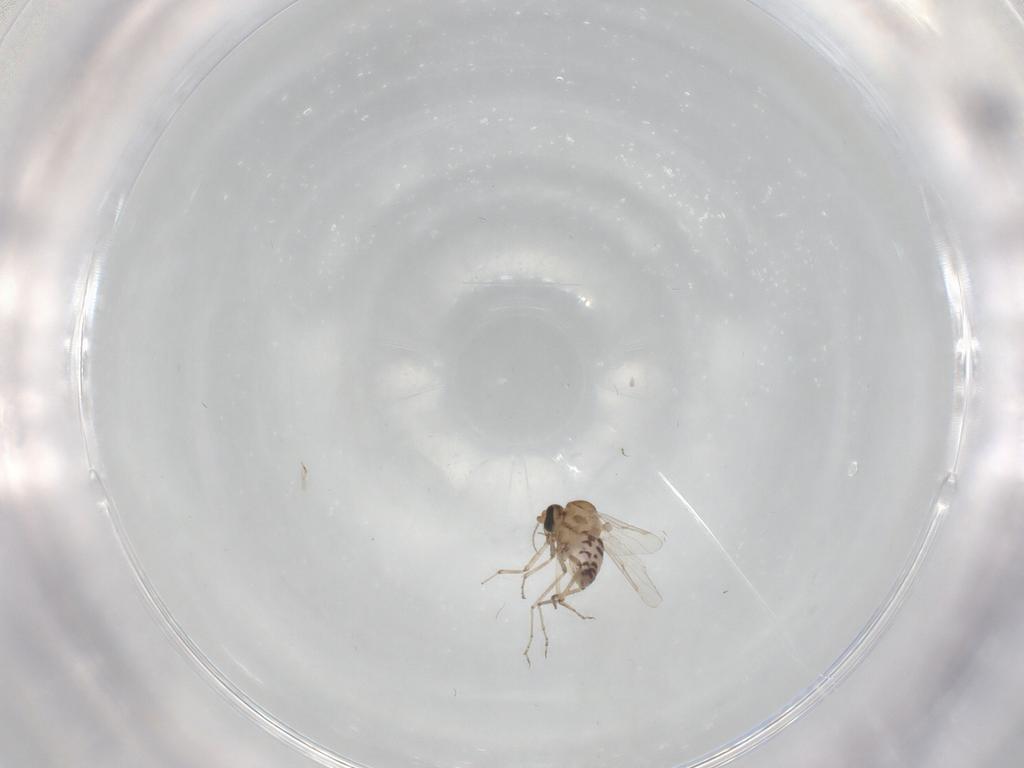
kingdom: Animalia
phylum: Arthropoda
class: Insecta
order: Diptera
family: Ceratopogonidae
